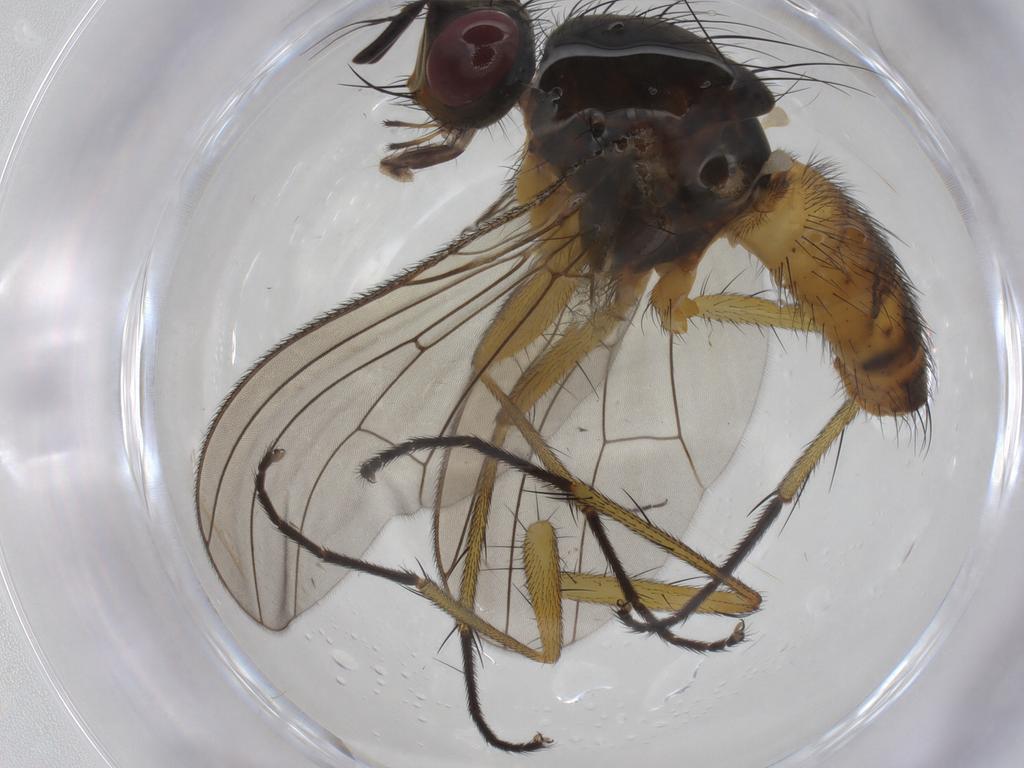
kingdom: Animalia
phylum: Arthropoda
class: Insecta
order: Diptera
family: Muscidae
